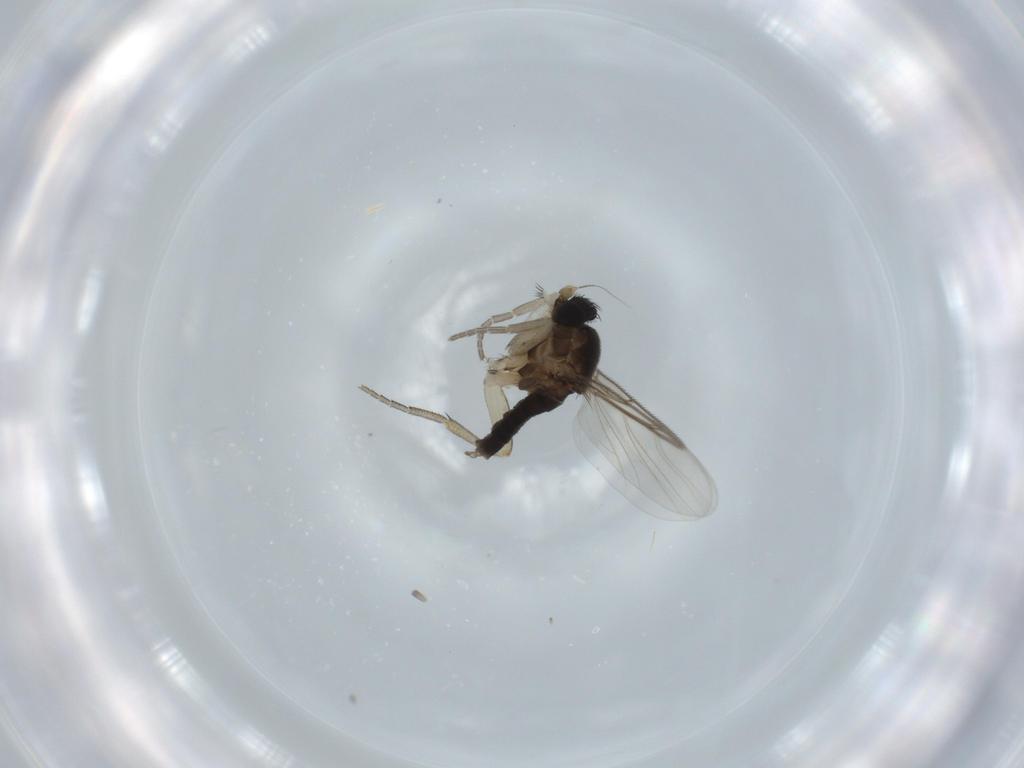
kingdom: Animalia
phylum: Arthropoda
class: Insecta
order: Diptera
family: Phoridae
